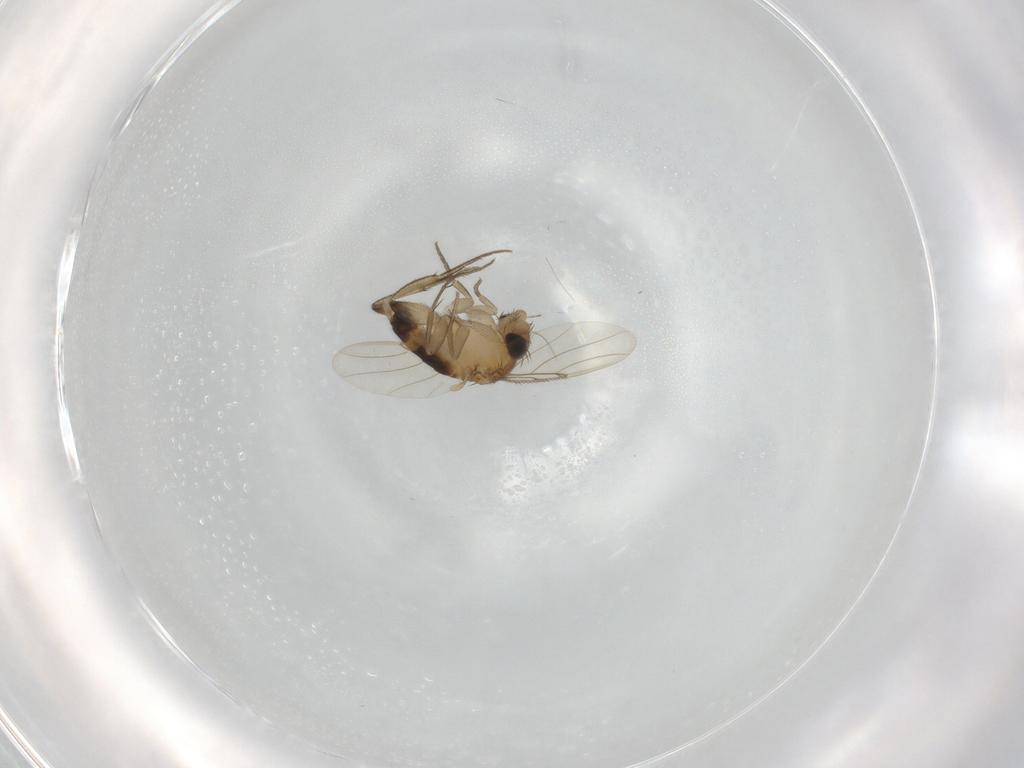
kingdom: Animalia
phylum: Arthropoda
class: Insecta
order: Diptera
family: Phoridae
